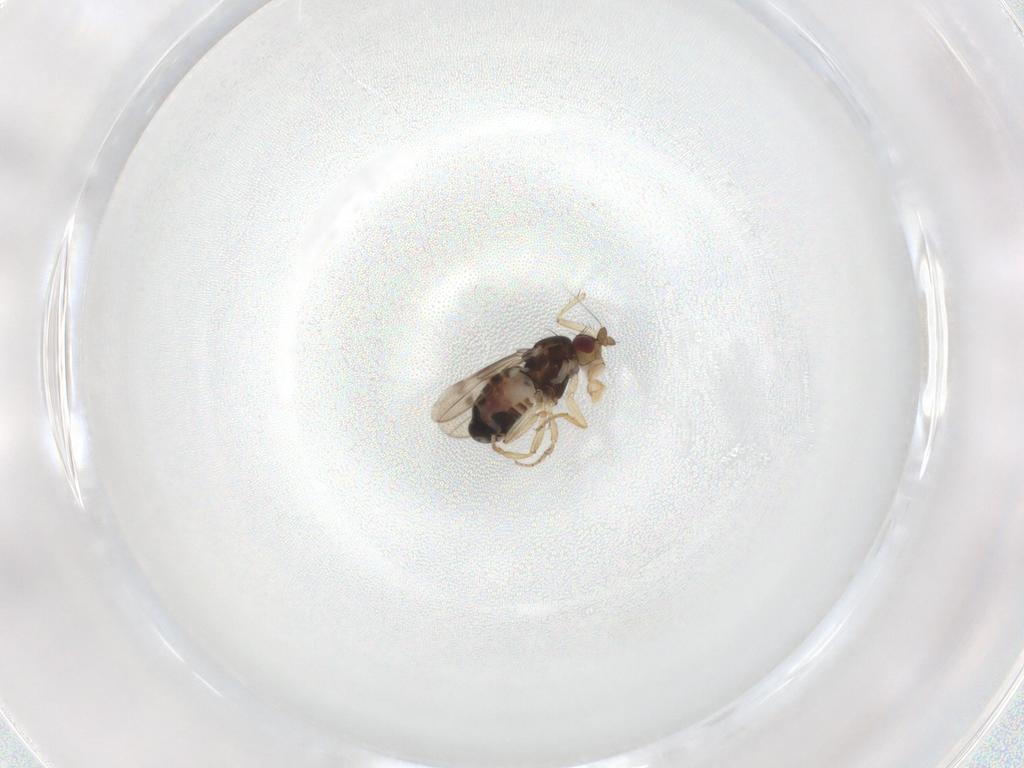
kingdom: Animalia
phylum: Arthropoda
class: Insecta
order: Diptera
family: Sphaeroceridae
